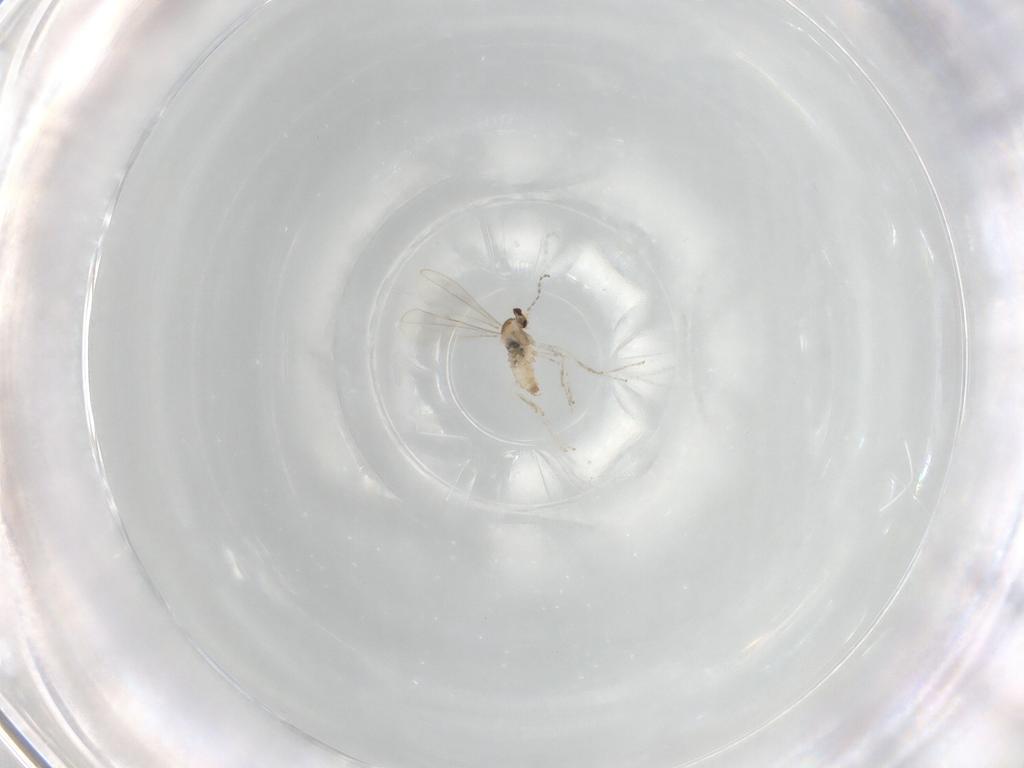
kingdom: Animalia
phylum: Arthropoda
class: Insecta
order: Diptera
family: Cecidomyiidae
